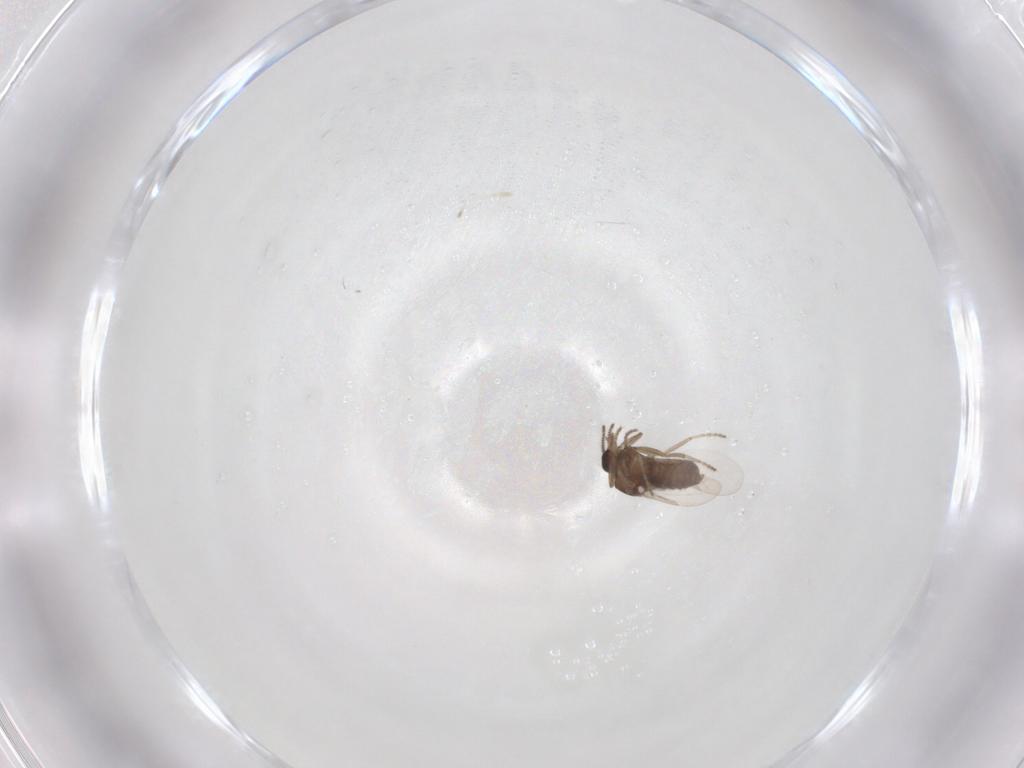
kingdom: Animalia
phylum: Arthropoda
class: Insecta
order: Diptera
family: Ceratopogonidae
